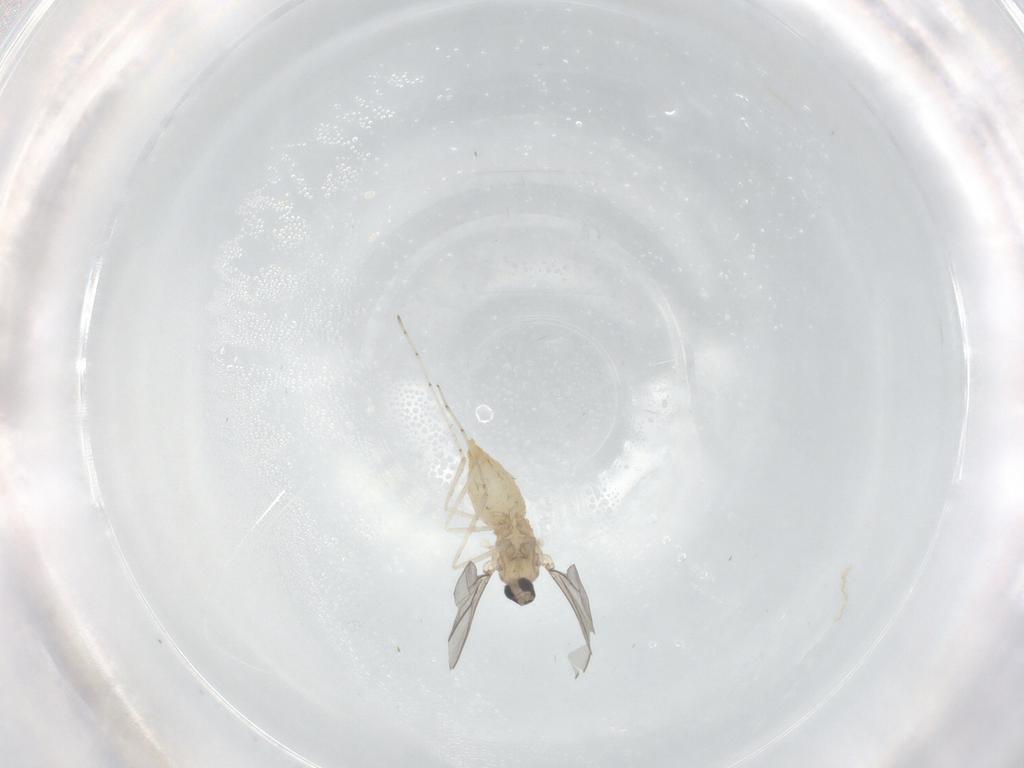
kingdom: Animalia
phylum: Arthropoda
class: Insecta
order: Diptera
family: Cecidomyiidae
